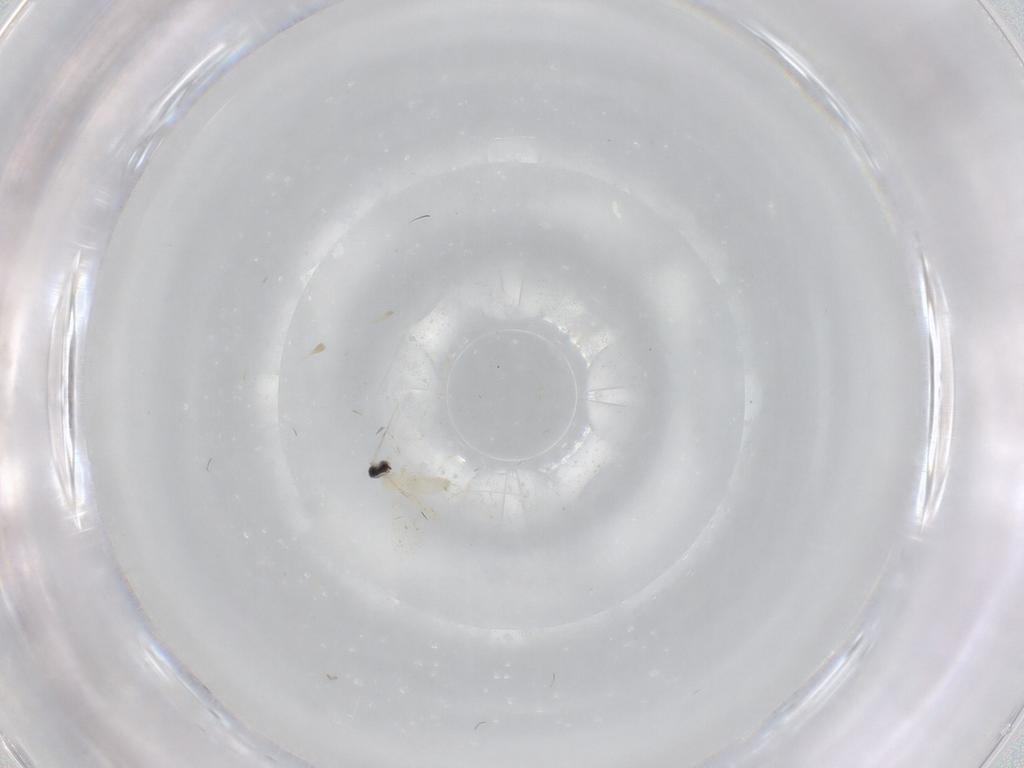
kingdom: Animalia
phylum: Arthropoda
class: Insecta
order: Diptera
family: Cecidomyiidae
